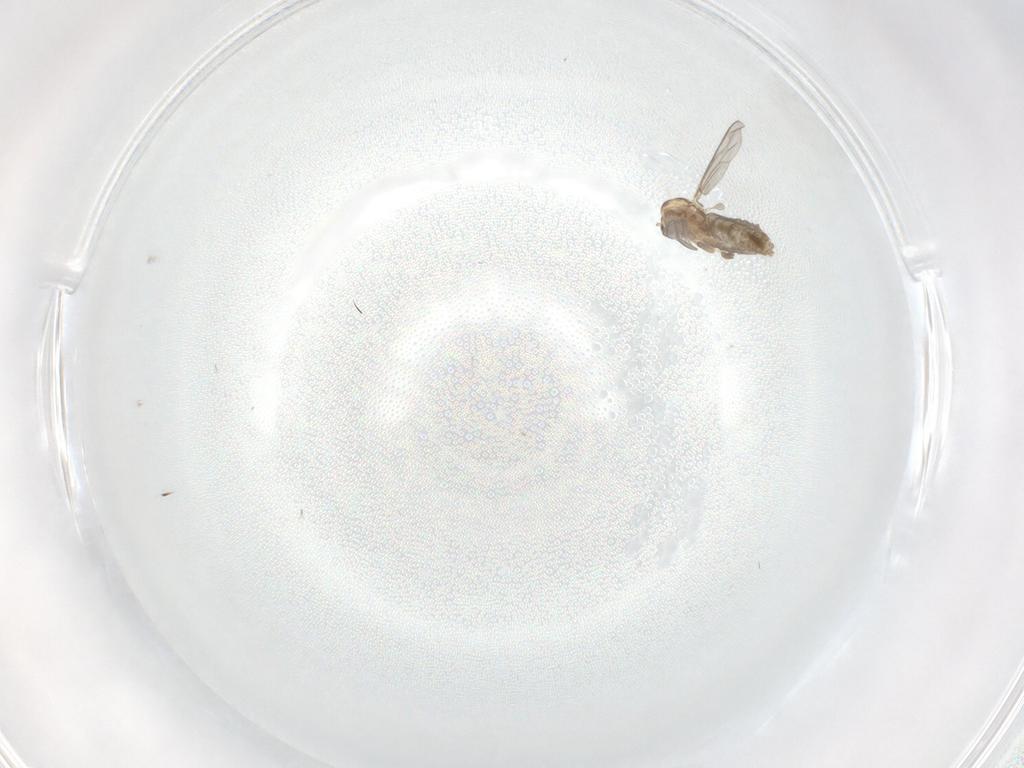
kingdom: Animalia
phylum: Arthropoda
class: Insecta
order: Diptera
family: Chironomidae
